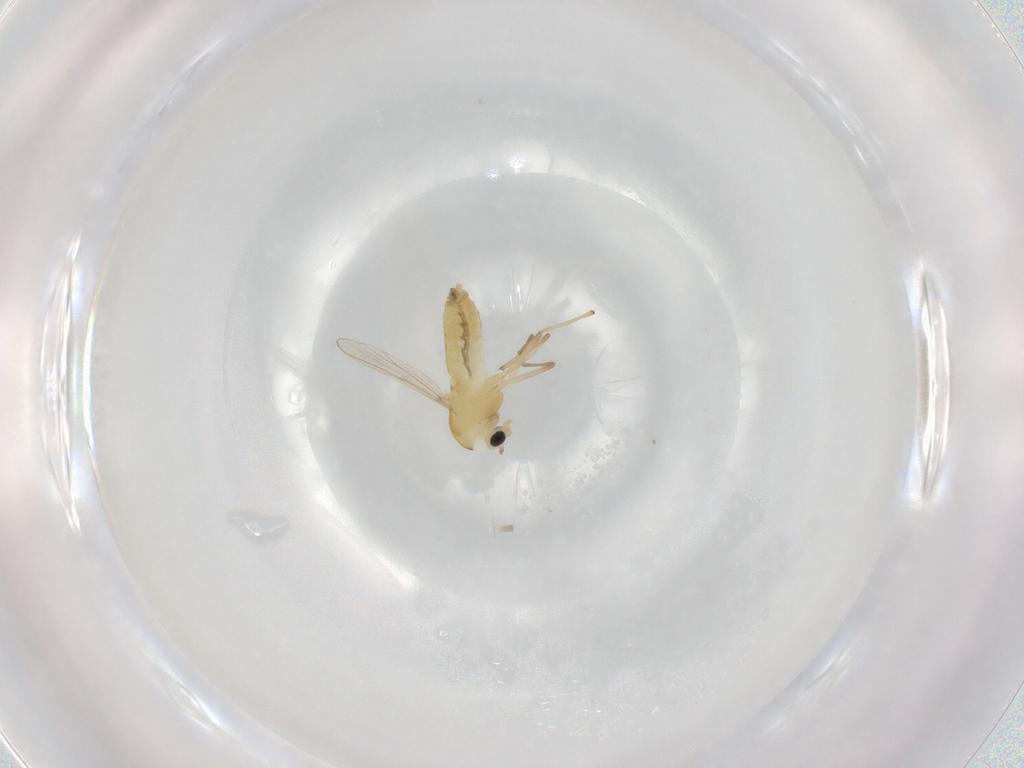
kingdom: Animalia
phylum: Arthropoda
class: Insecta
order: Diptera
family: Chironomidae
